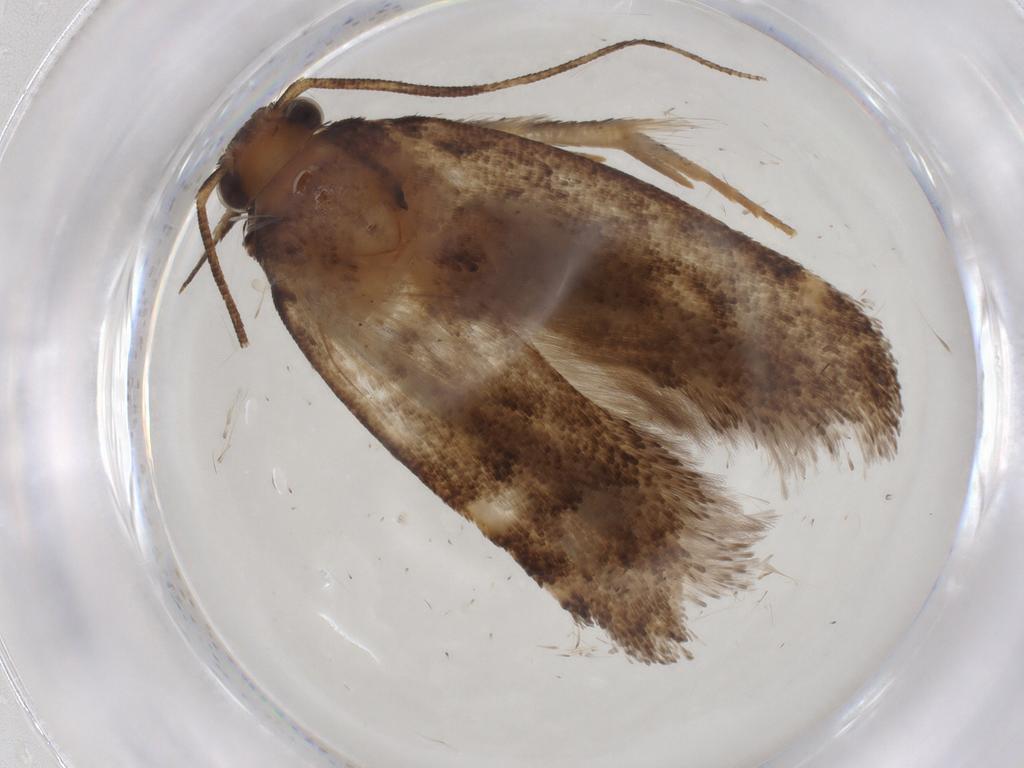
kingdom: Animalia
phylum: Arthropoda
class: Insecta
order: Lepidoptera
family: Gelechiidae
